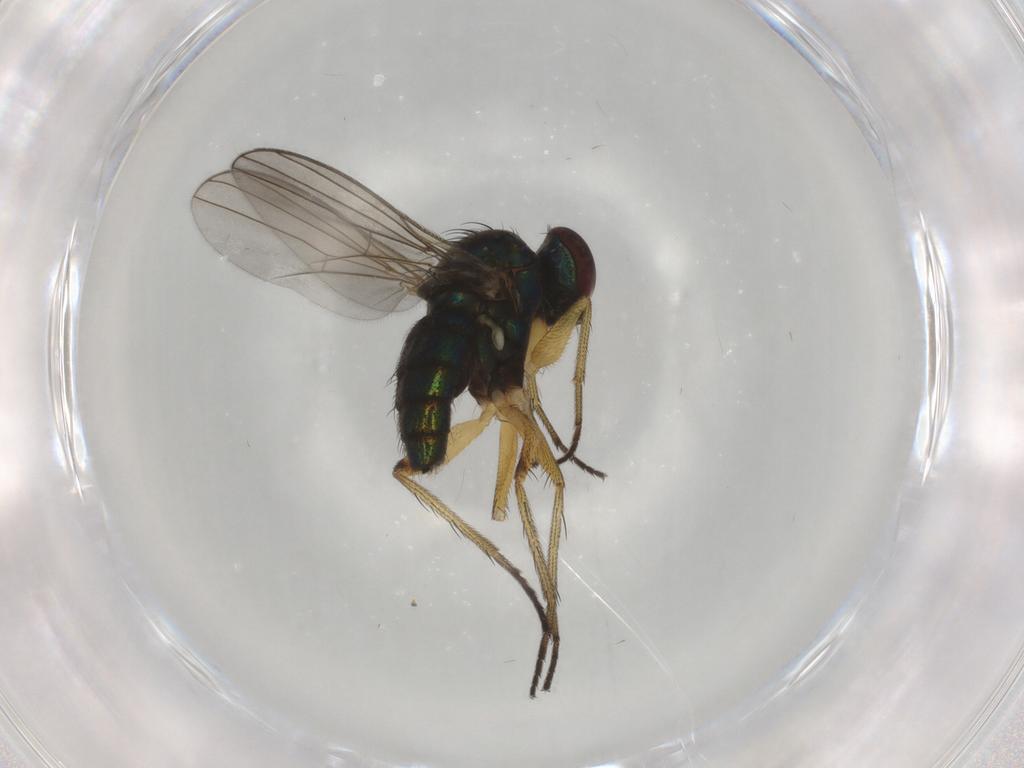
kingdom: Animalia
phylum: Arthropoda
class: Insecta
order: Diptera
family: Dolichopodidae
